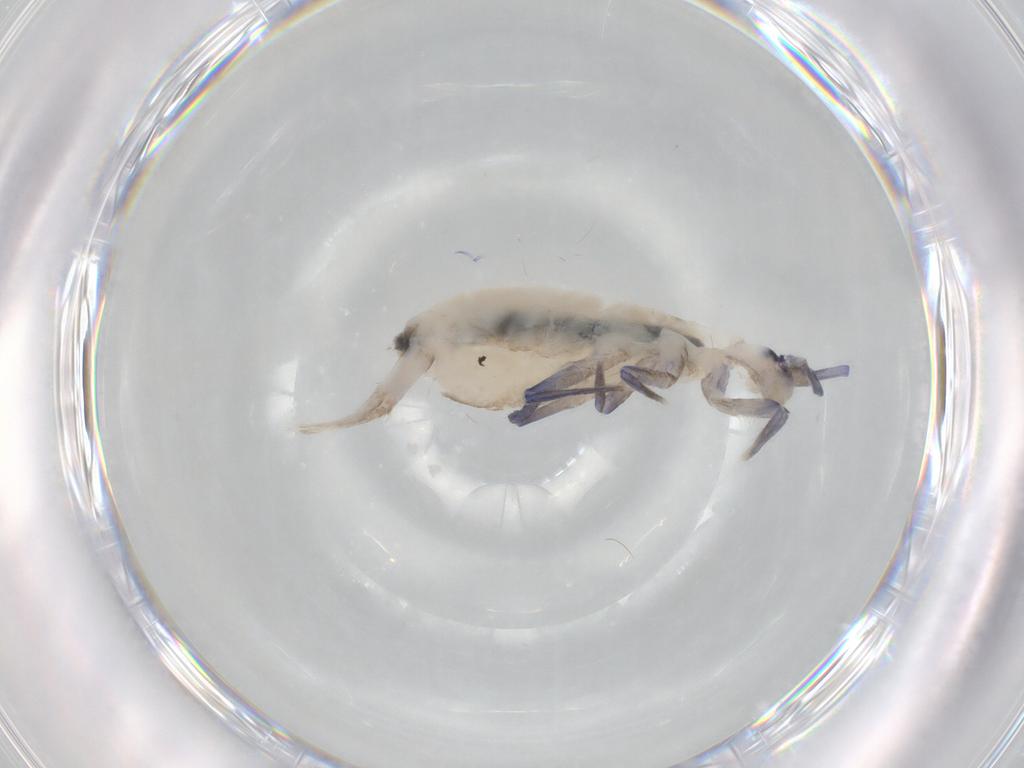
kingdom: Animalia
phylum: Arthropoda
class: Collembola
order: Entomobryomorpha
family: Tomoceridae
